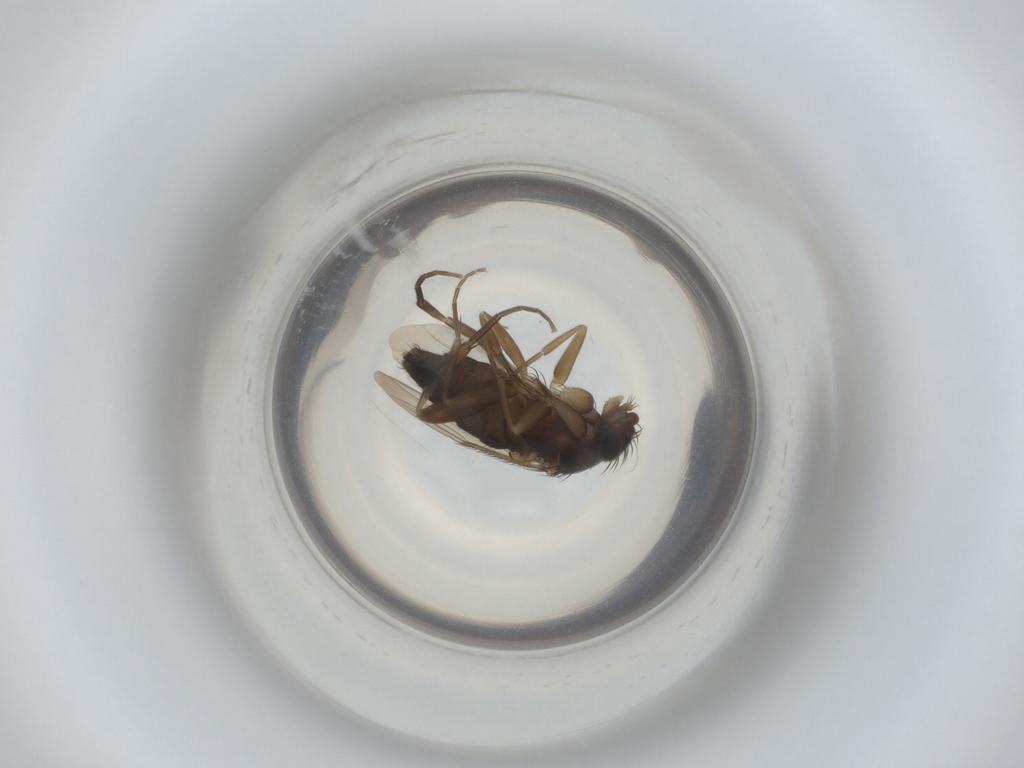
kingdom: Animalia
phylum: Arthropoda
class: Insecta
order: Diptera
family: Phoridae
